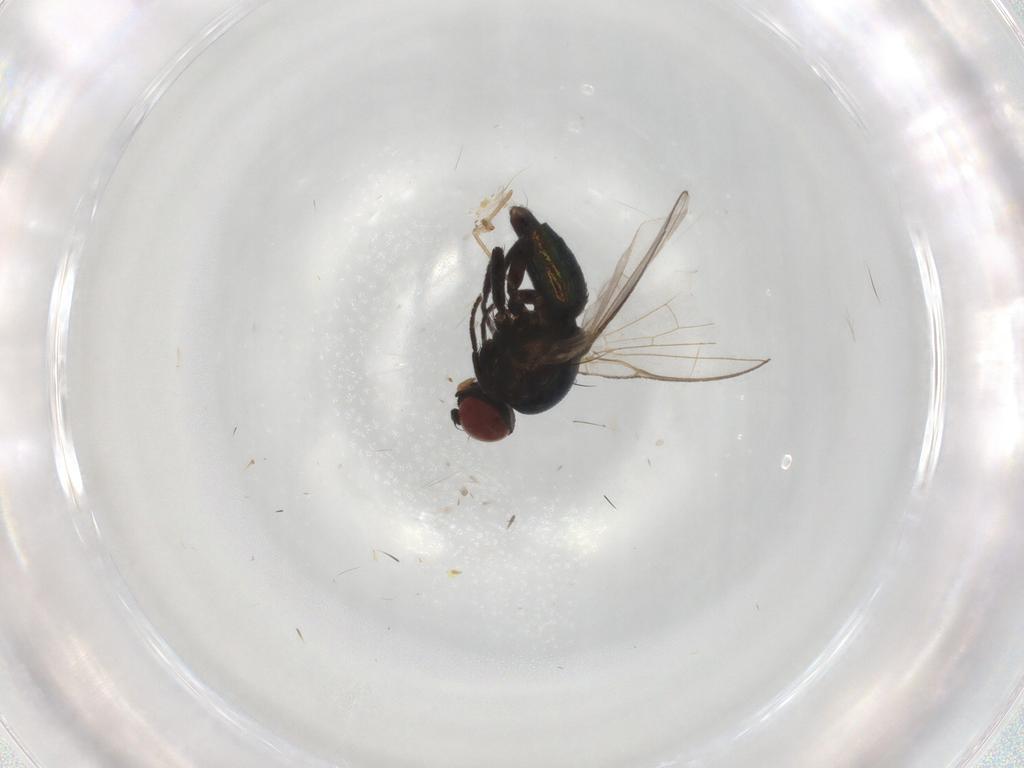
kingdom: Animalia
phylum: Arthropoda
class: Insecta
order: Diptera
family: Agromyzidae
